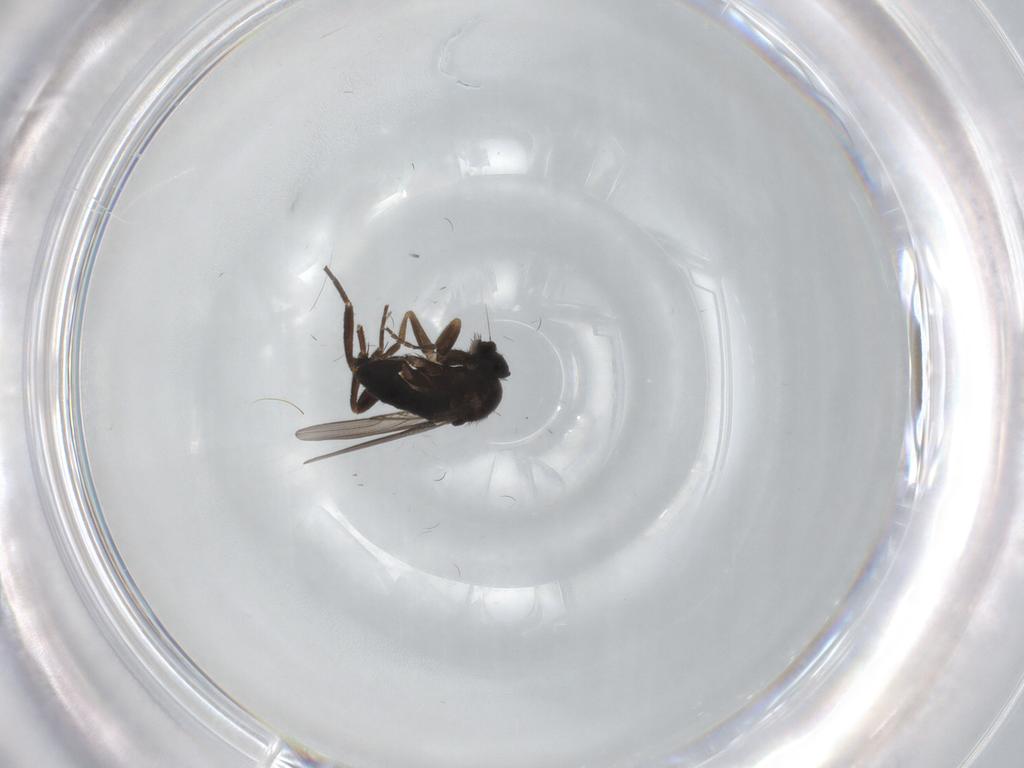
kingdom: Animalia
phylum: Arthropoda
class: Insecta
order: Diptera
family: Phoridae
